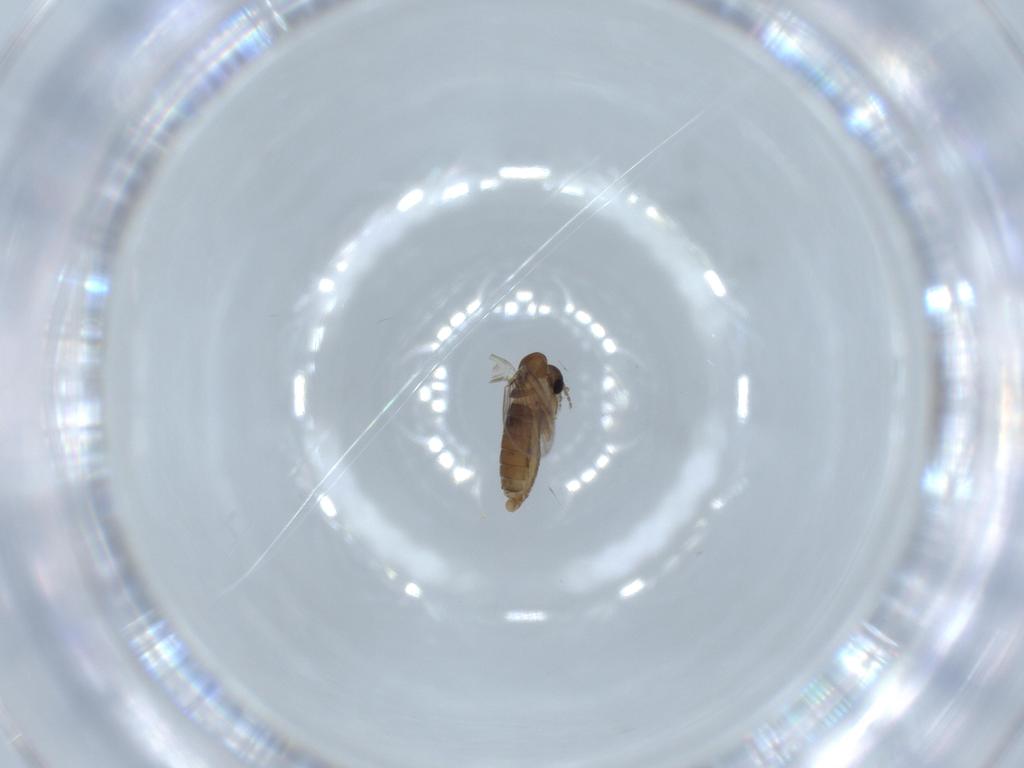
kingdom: Animalia
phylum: Arthropoda
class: Insecta
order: Diptera
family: Phoridae
